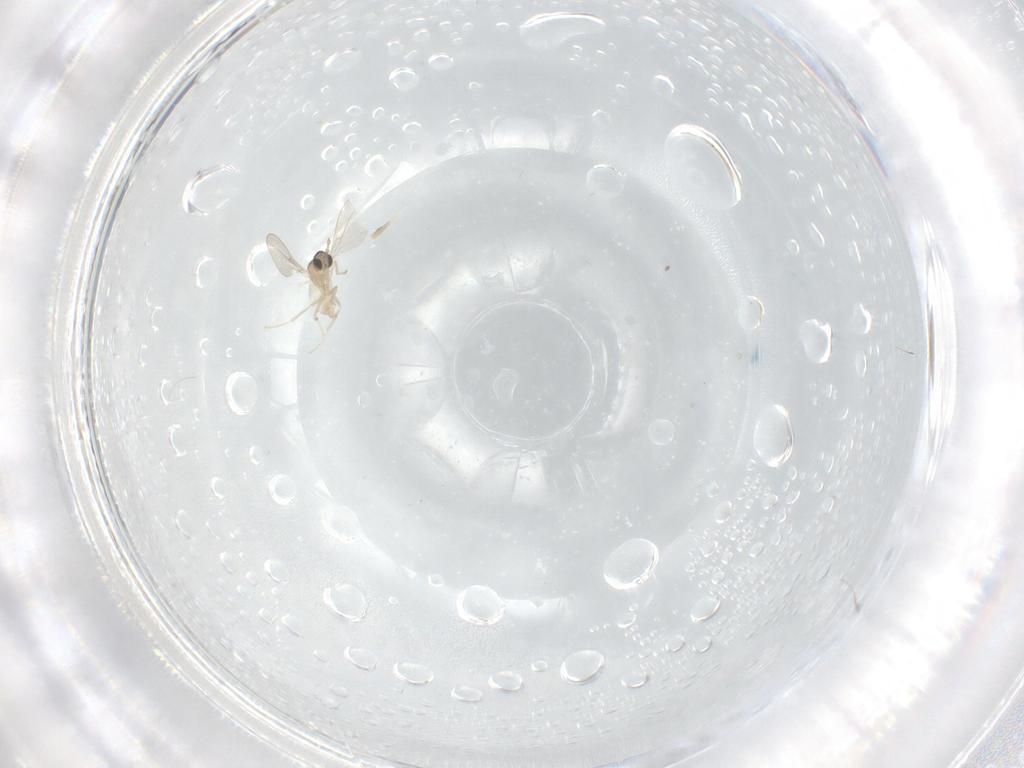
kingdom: Animalia
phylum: Arthropoda
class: Insecta
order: Diptera
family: Cecidomyiidae
